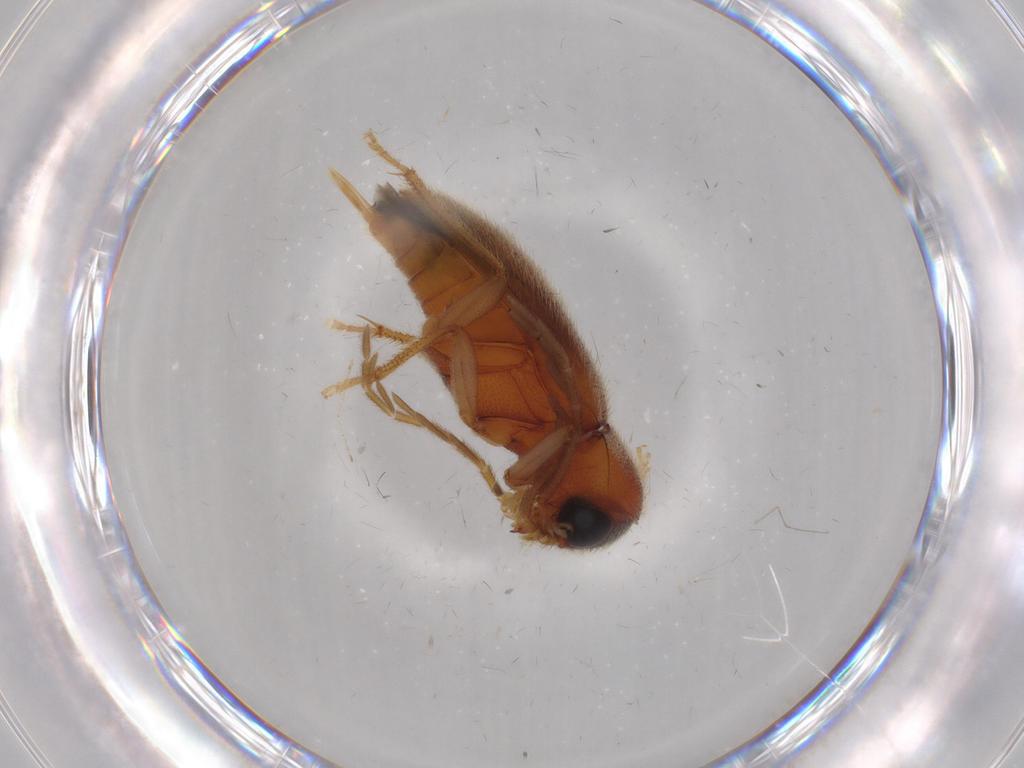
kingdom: Animalia
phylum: Arthropoda
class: Insecta
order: Coleoptera
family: Ptilodactylidae
